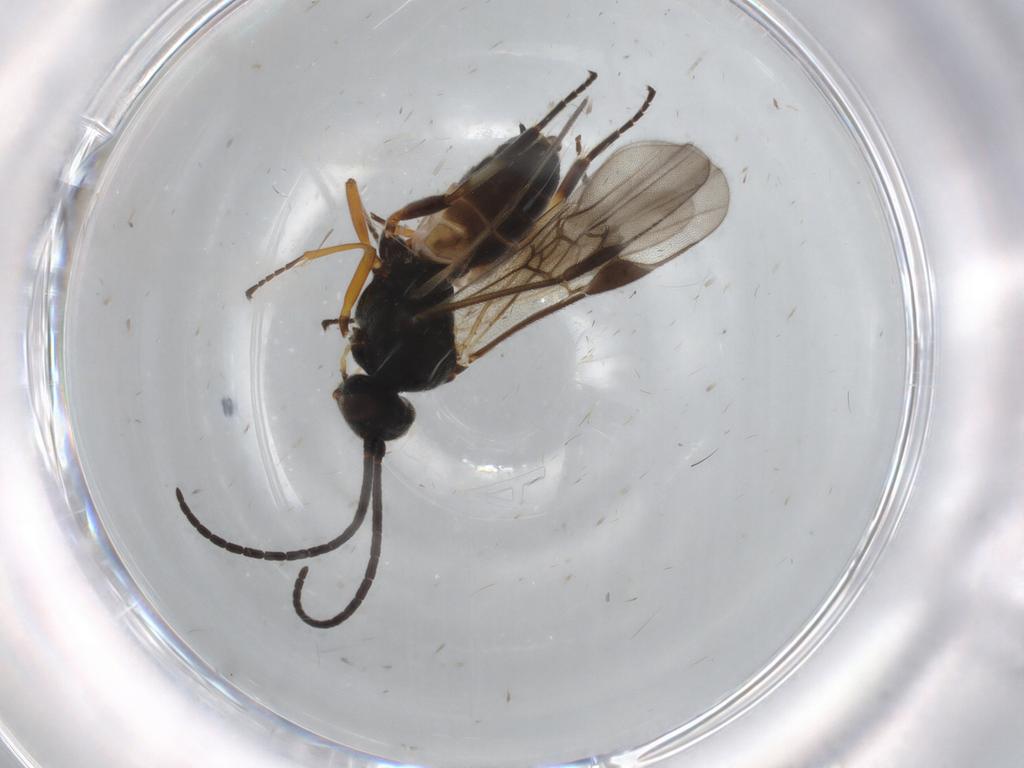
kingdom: Animalia
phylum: Arthropoda
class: Insecta
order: Hymenoptera
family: Braconidae
